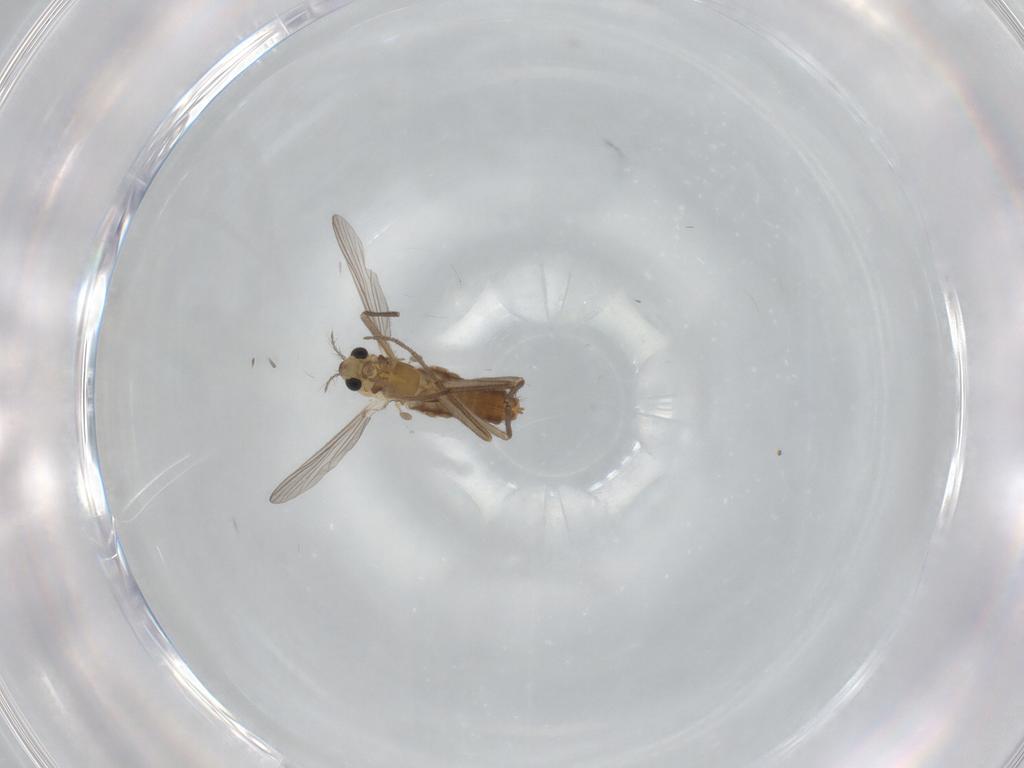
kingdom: Animalia
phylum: Arthropoda
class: Insecta
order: Diptera
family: Chironomidae
